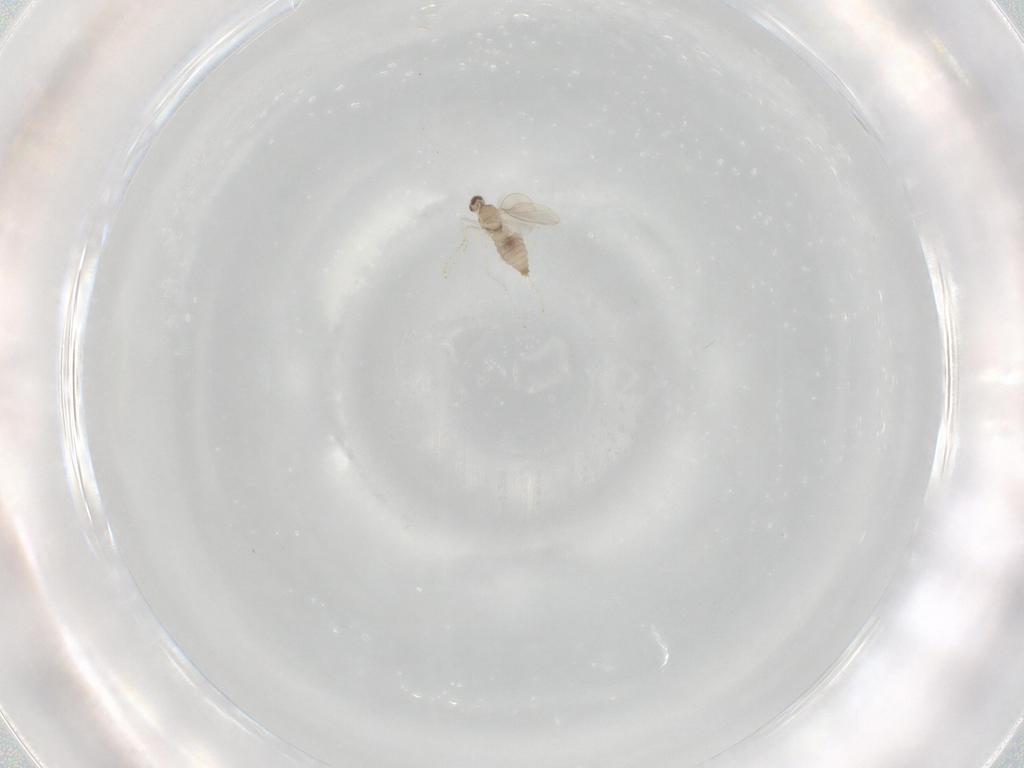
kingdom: Animalia
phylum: Arthropoda
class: Insecta
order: Diptera
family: Cecidomyiidae
